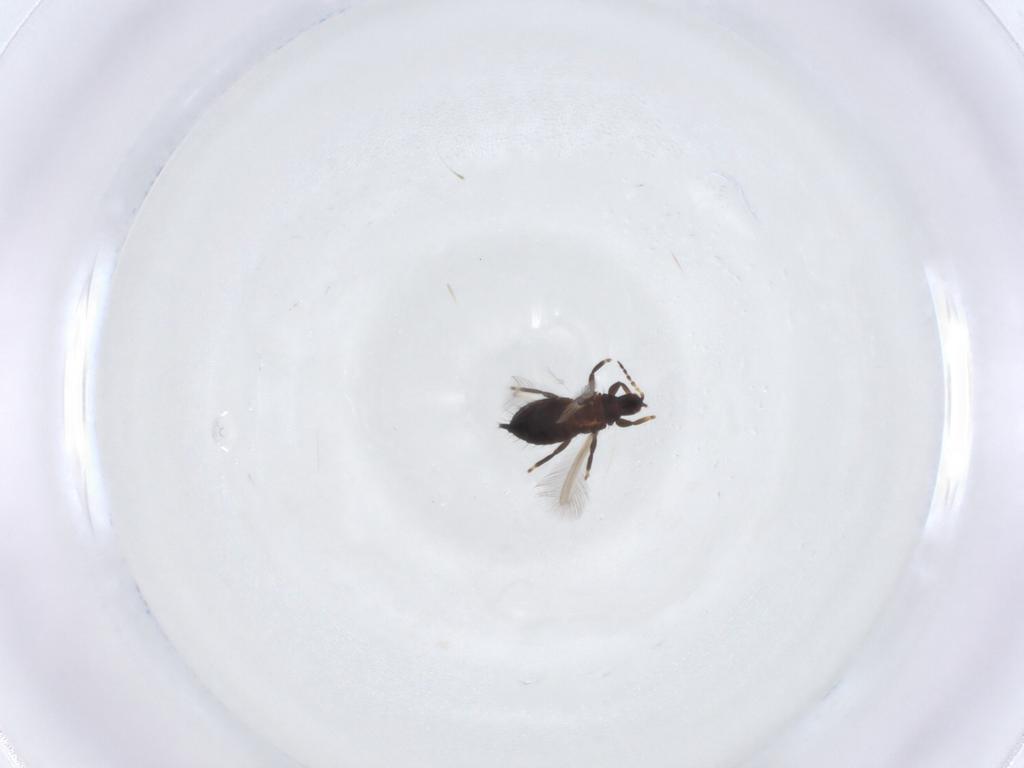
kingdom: Animalia
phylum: Arthropoda
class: Insecta
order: Thysanoptera
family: Phlaeothripidae
